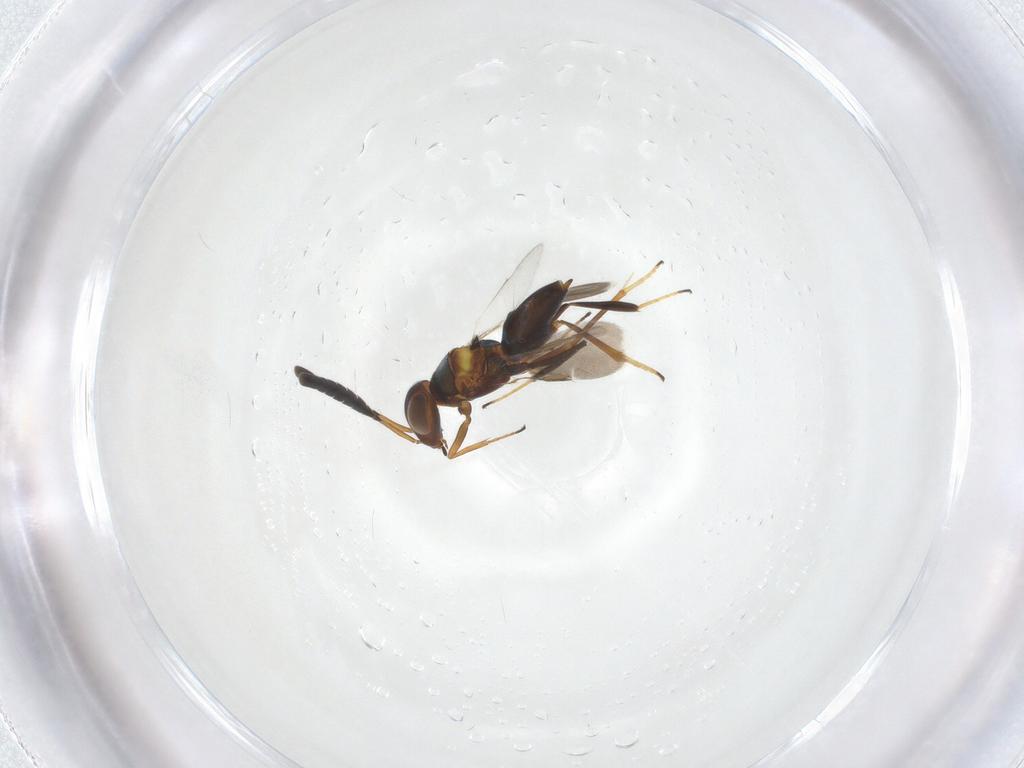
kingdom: Animalia
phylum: Arthropoda
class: Insecta
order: Hymenoptera
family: Encyrtidae
